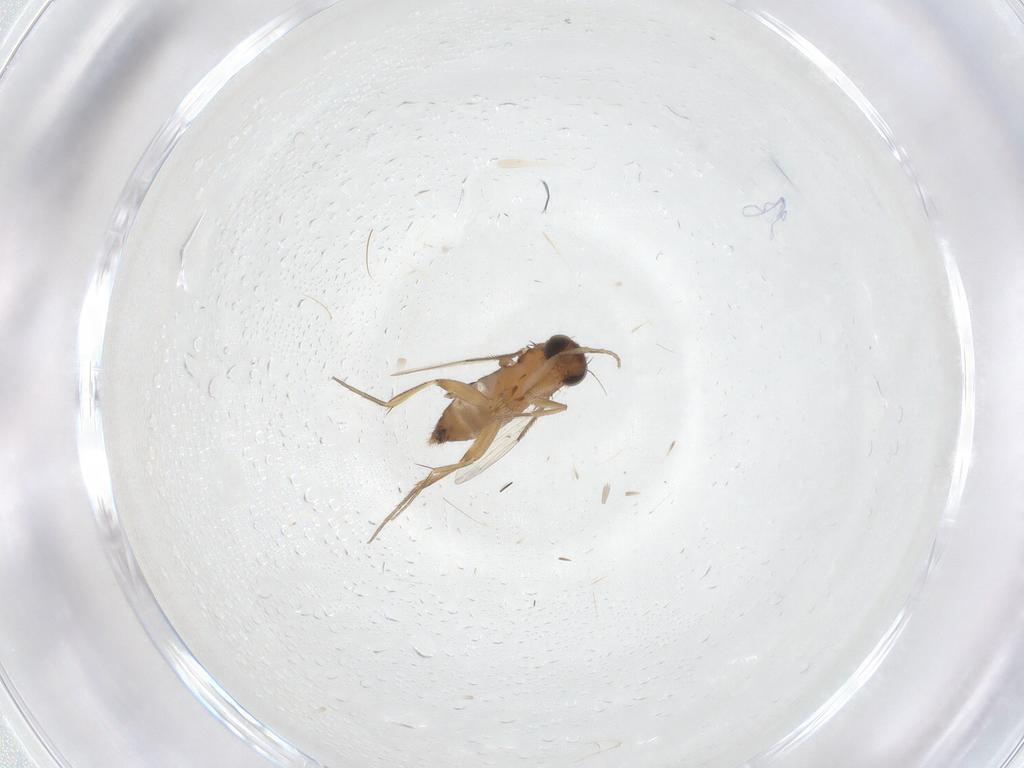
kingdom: Animalia
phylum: Arthropoda
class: Insecta
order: Diptera
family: Phoridae
